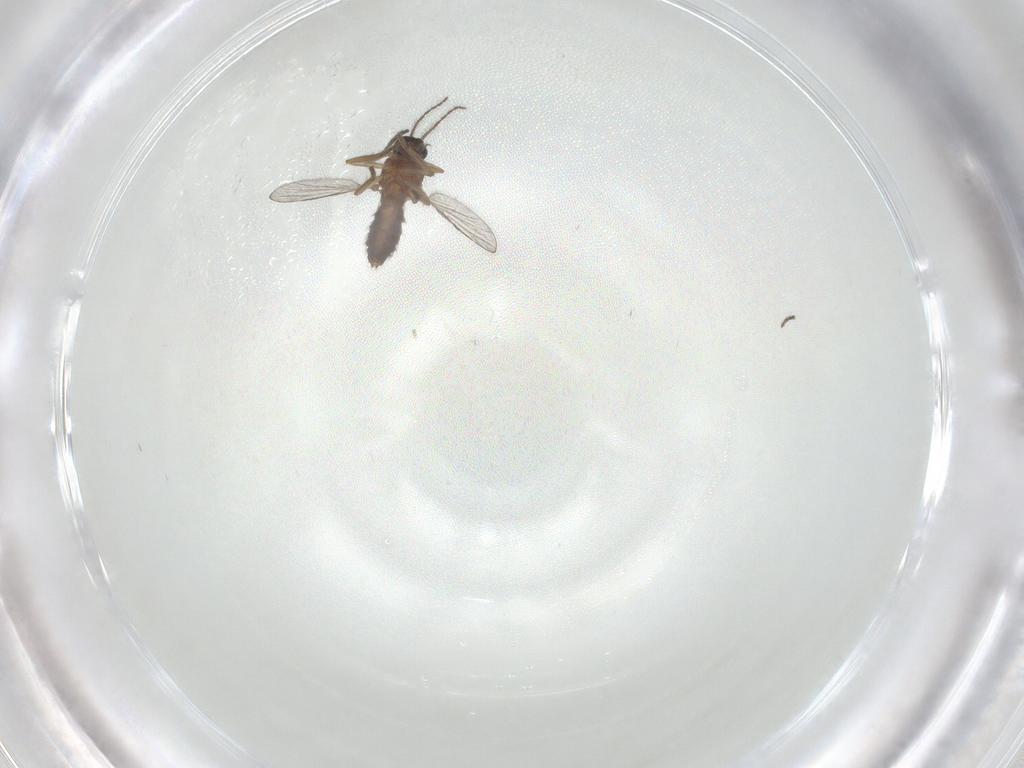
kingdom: Animalia
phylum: Arthropoda
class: Insecta
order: Diptera
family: Ceratopogonidae
